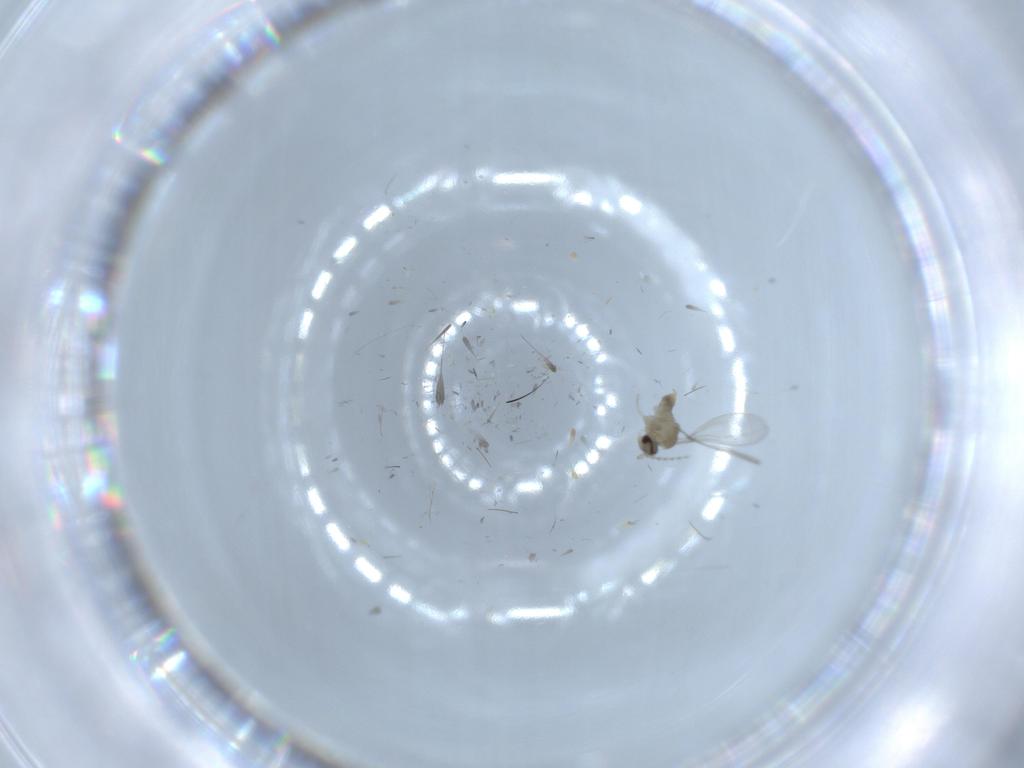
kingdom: Animalia
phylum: Arthropoda
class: Insecta
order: Diptera
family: Cecidomyiidae
